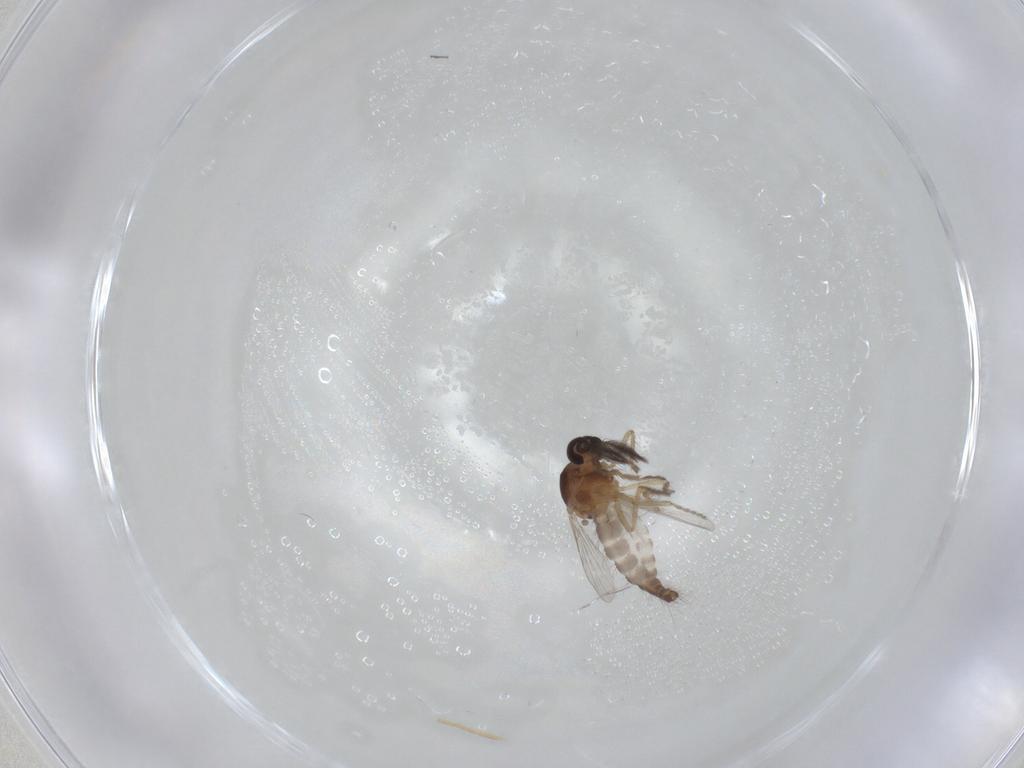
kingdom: Animalia
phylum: Arthropoda
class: Insecta
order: Diptera
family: Ceratopogonidae
